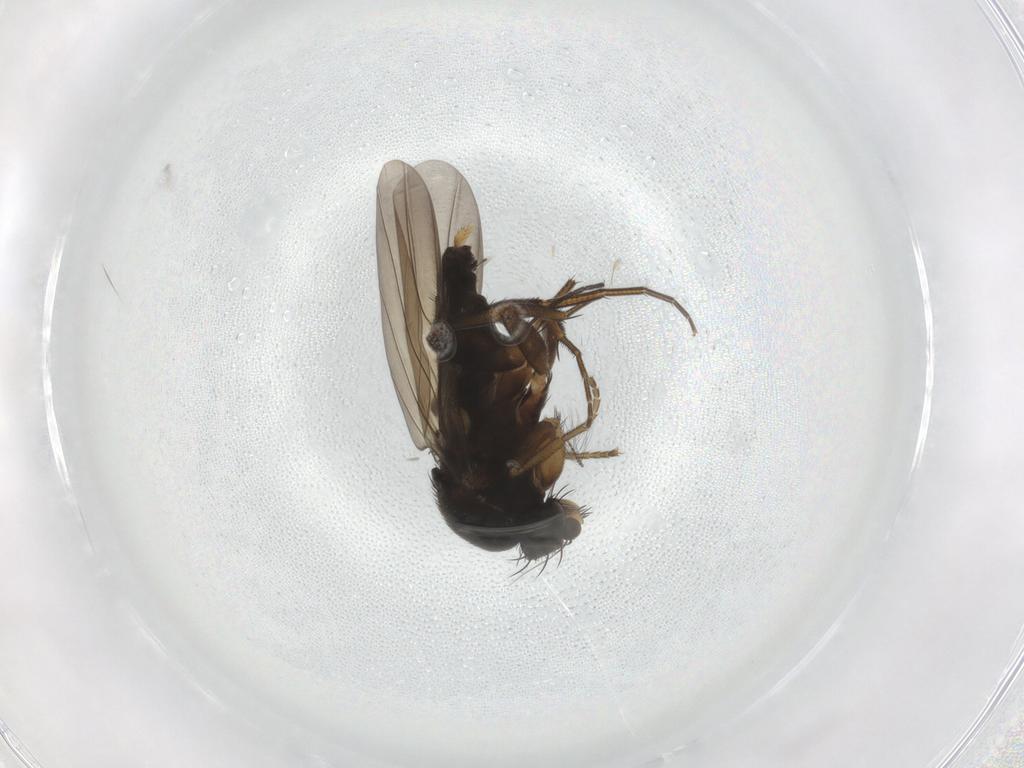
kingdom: Animalia
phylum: Arthropoda
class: Insecta
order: Diptera
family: Phoridae
